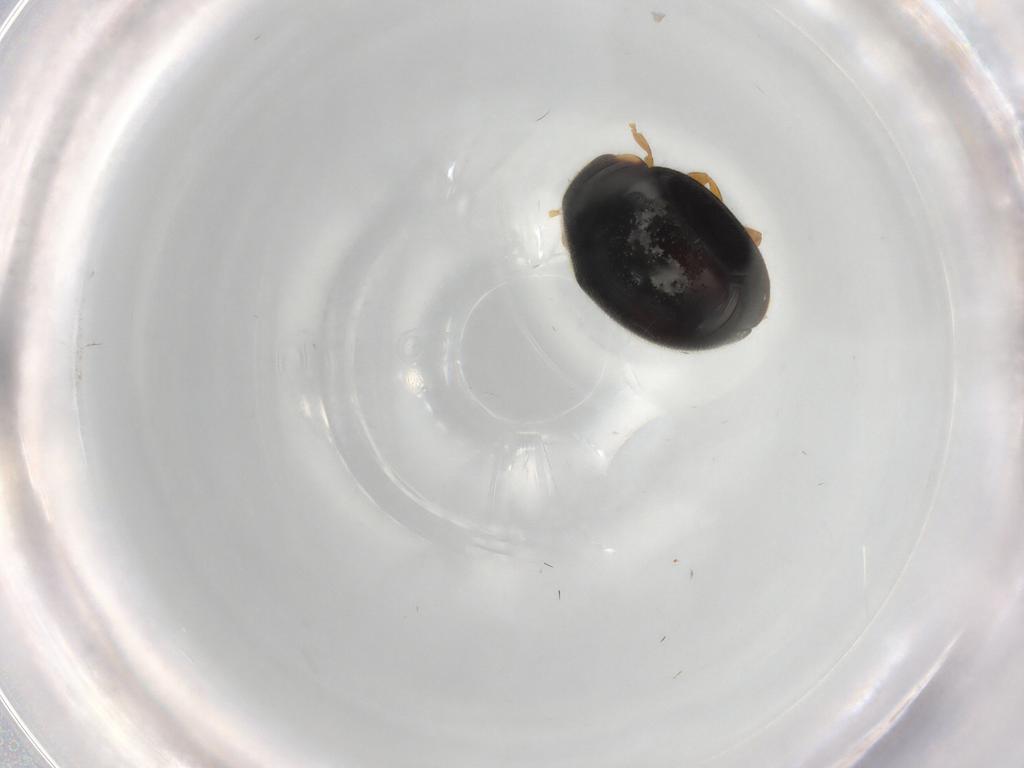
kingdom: Animalia
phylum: Arthropoda
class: Insecta
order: Coleoptera
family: Coccinellidae
